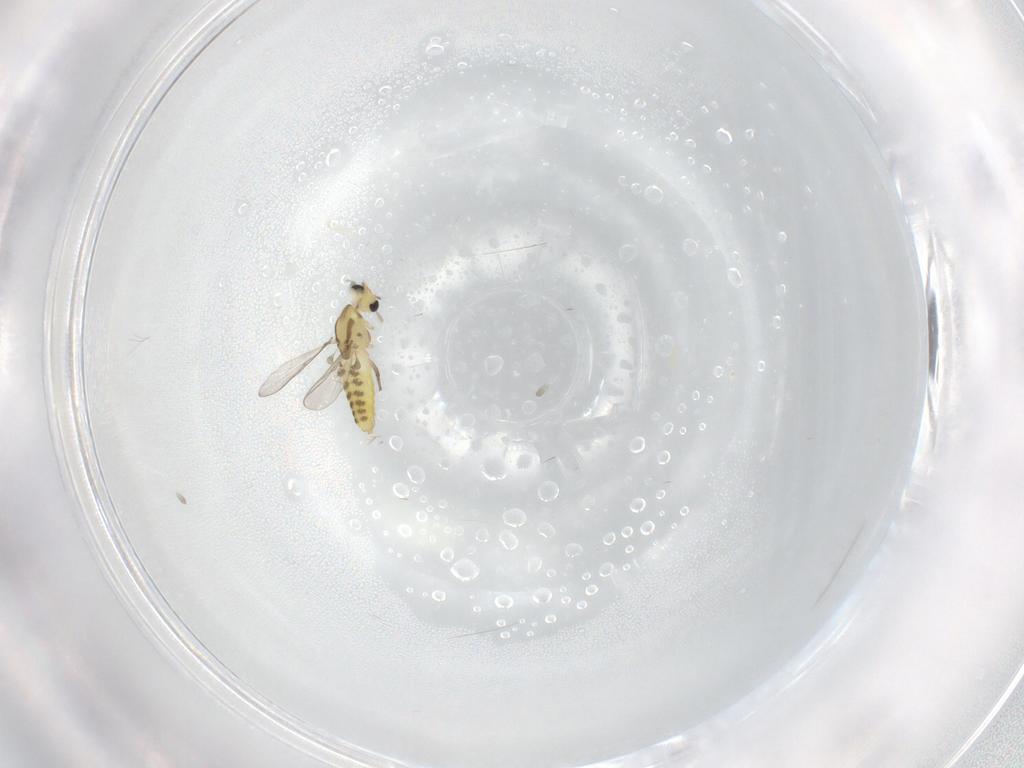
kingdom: Animalia
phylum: Arthropoda
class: Insecta
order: Diptera
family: Chironomidae
